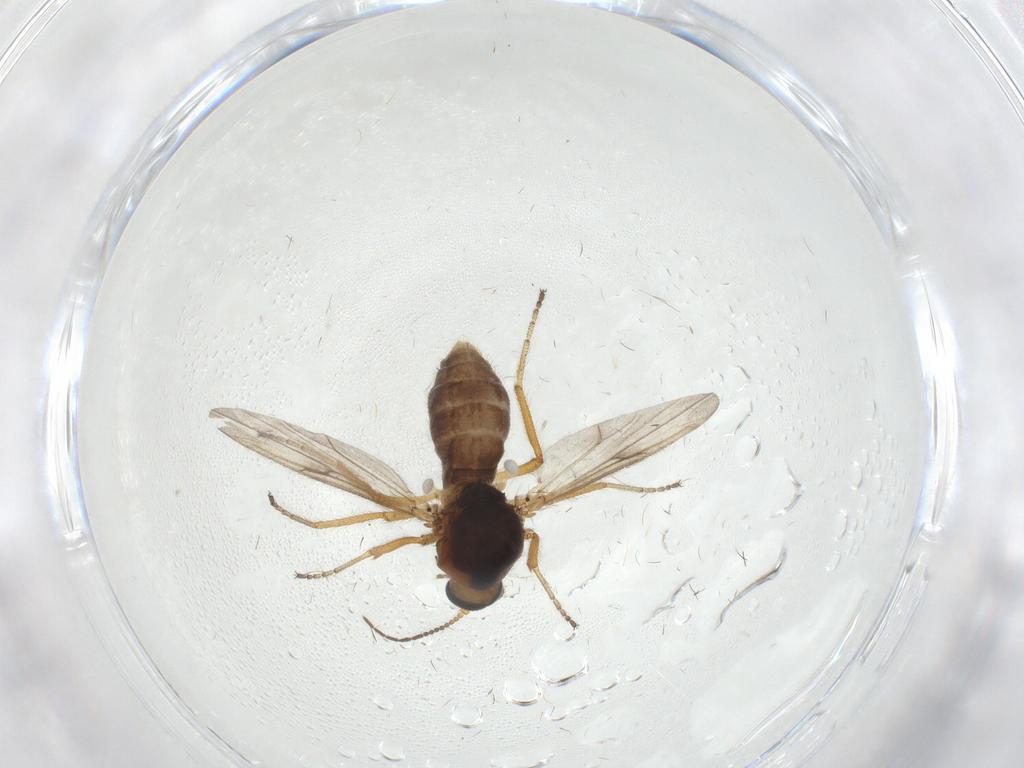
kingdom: Animalia
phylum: Arthropoda
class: Insecta
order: Diptera
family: Ceratopogonidae
